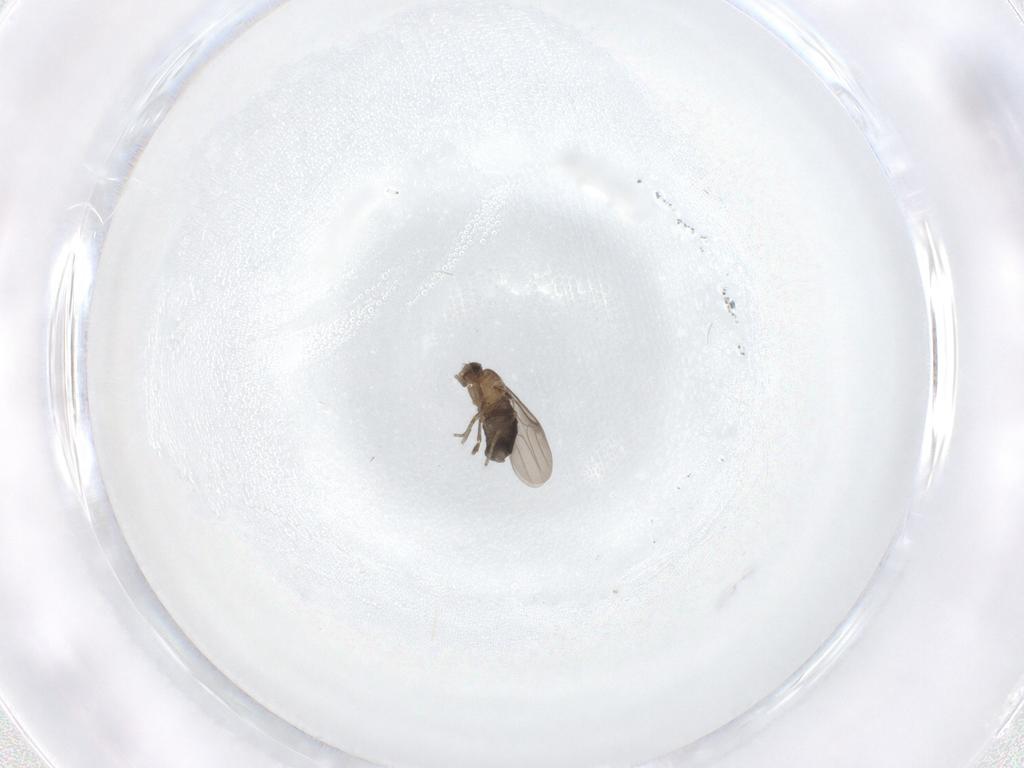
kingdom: Animalia
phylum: Arthropoda
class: Insecta
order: Diptera
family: Phoridae
